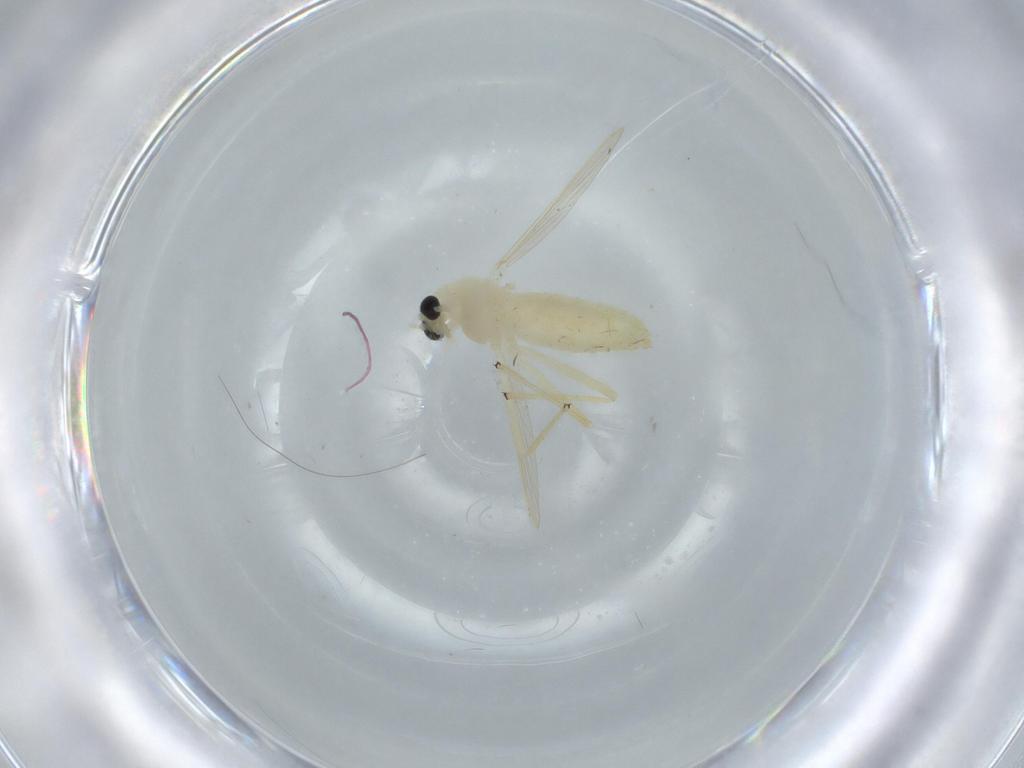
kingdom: Animalia
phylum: Arthropoda
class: Insecta
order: Diptera
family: Chironomidae
